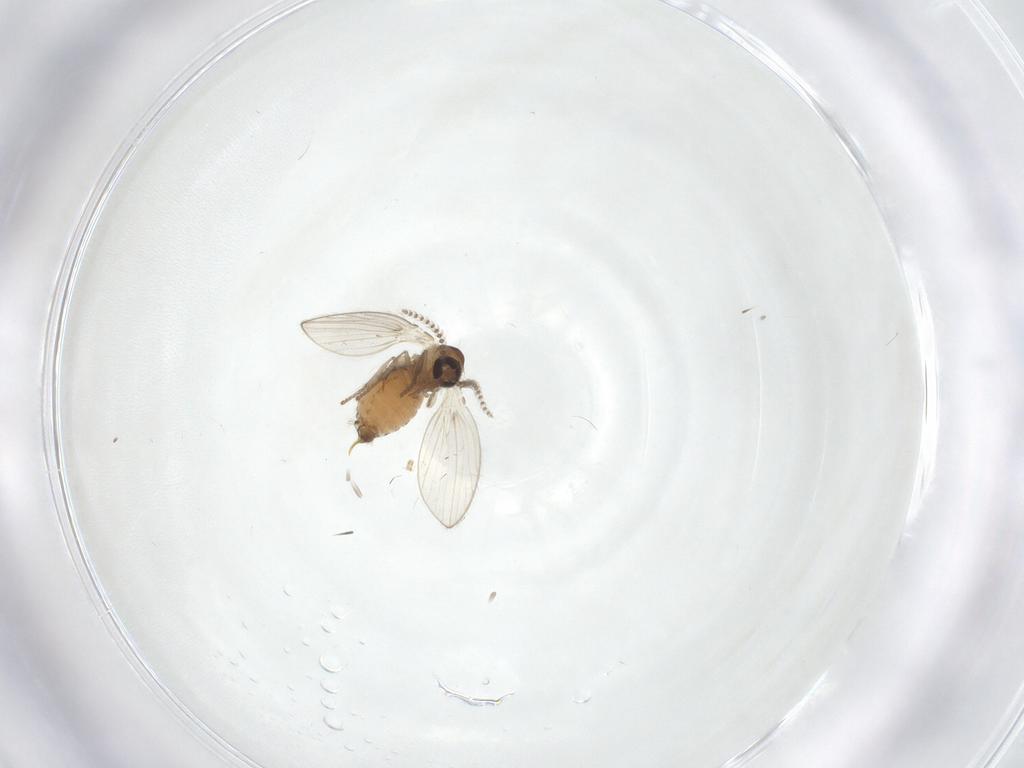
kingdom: Animalia
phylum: Arthropoda
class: Insecta
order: Diptera
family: Psychodidae
